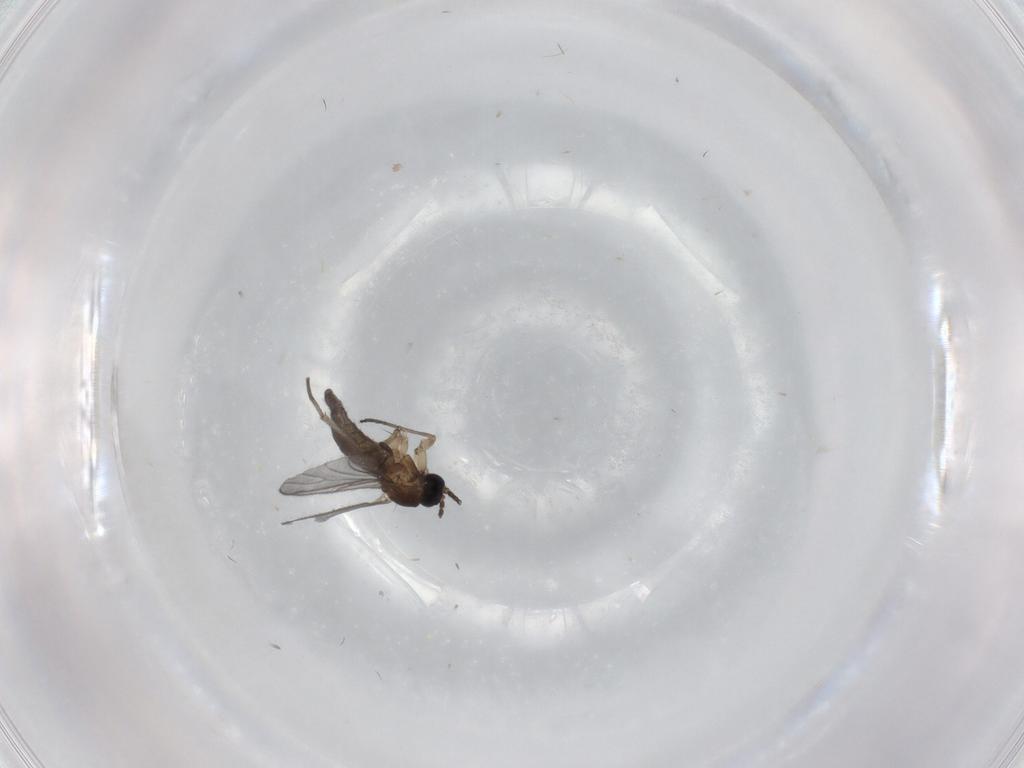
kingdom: Animalia
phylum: Arthropoda
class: Insecta
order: Diptera
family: Sciaridae
